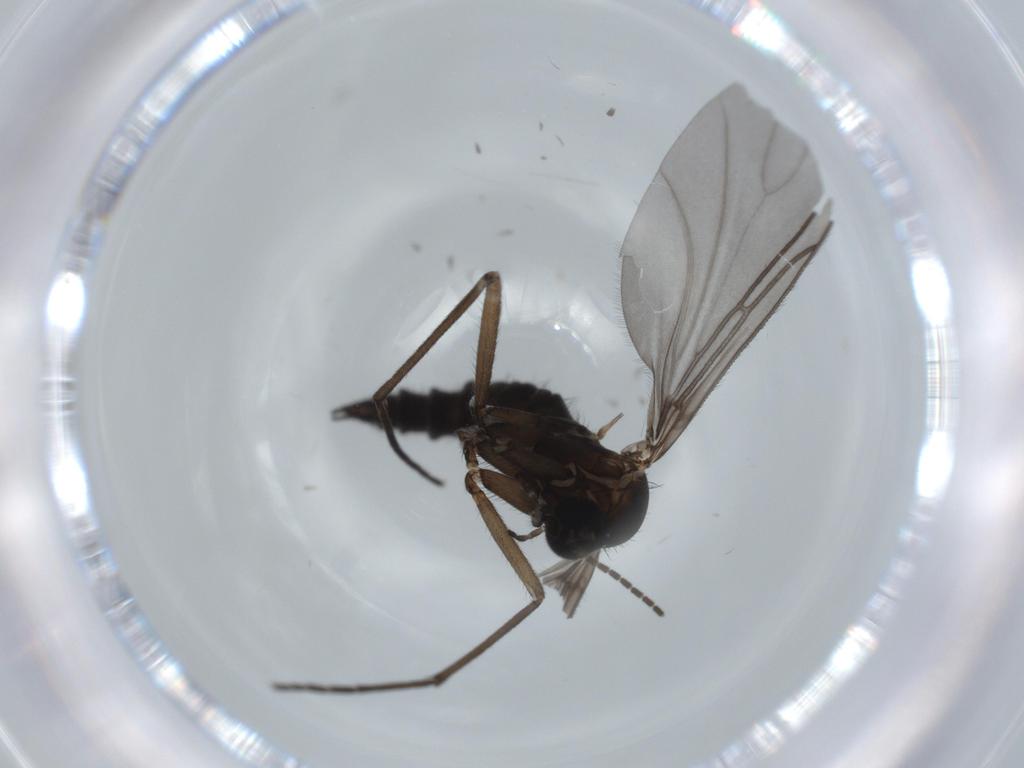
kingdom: Animalia
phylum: Arthropoda
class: Insecta
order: Diptera
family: Sciaridae
